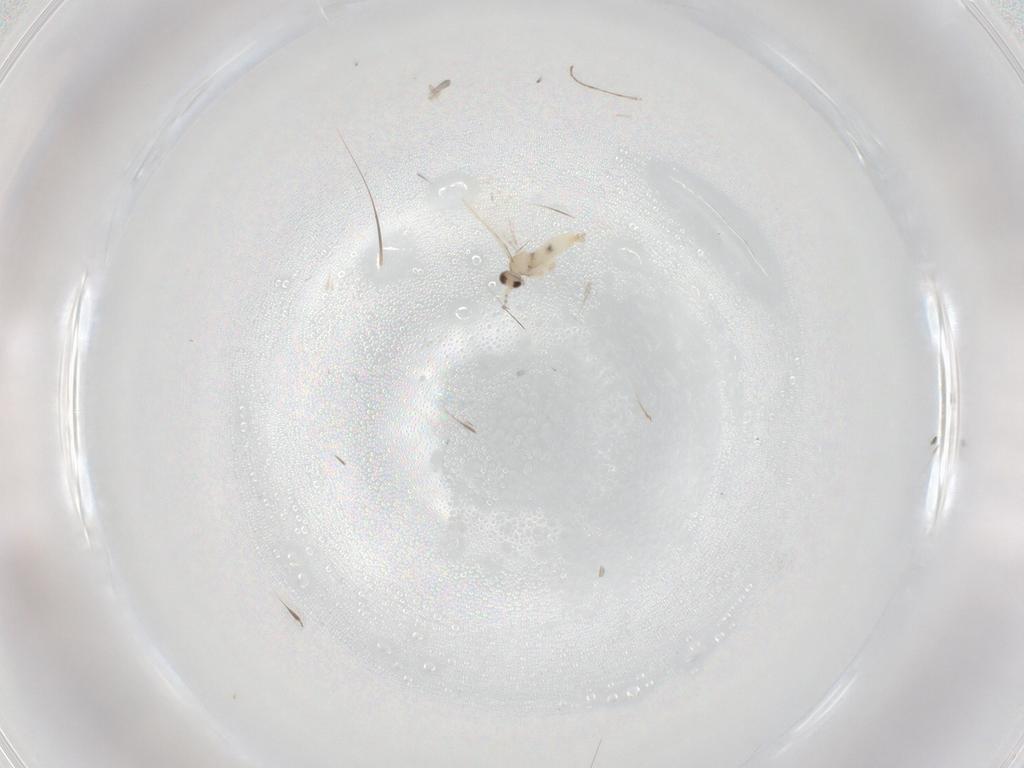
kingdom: Animalia
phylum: Arthropoda
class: Insecta
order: Diptera
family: Cecidomyiidae
